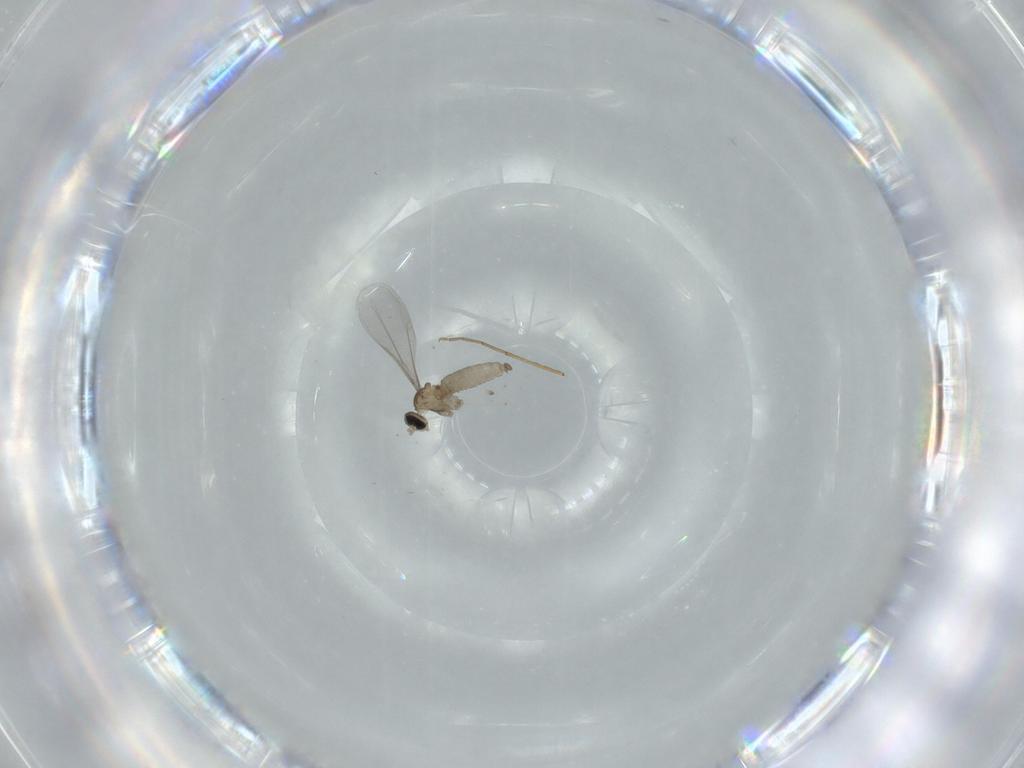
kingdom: Animalia
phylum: Arthropoda
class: Insecta
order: Diptera
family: Cecidomyiidae
